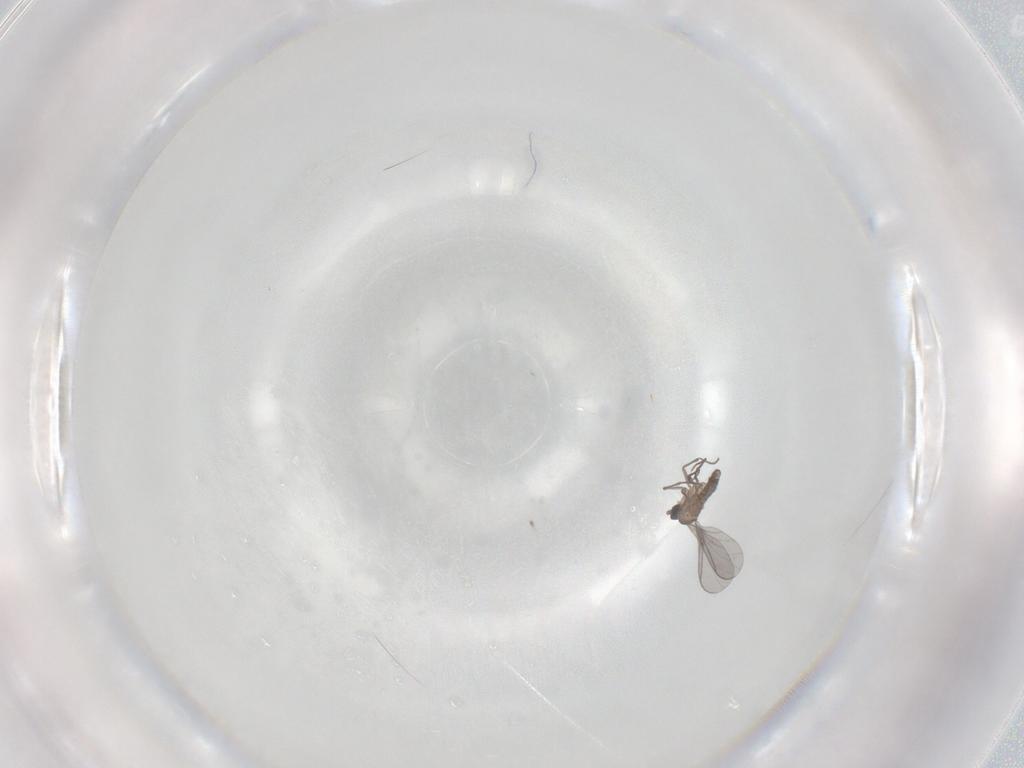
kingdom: Animalia
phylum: Arthropoda
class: Insecta
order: Diptera
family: Sciaridae
